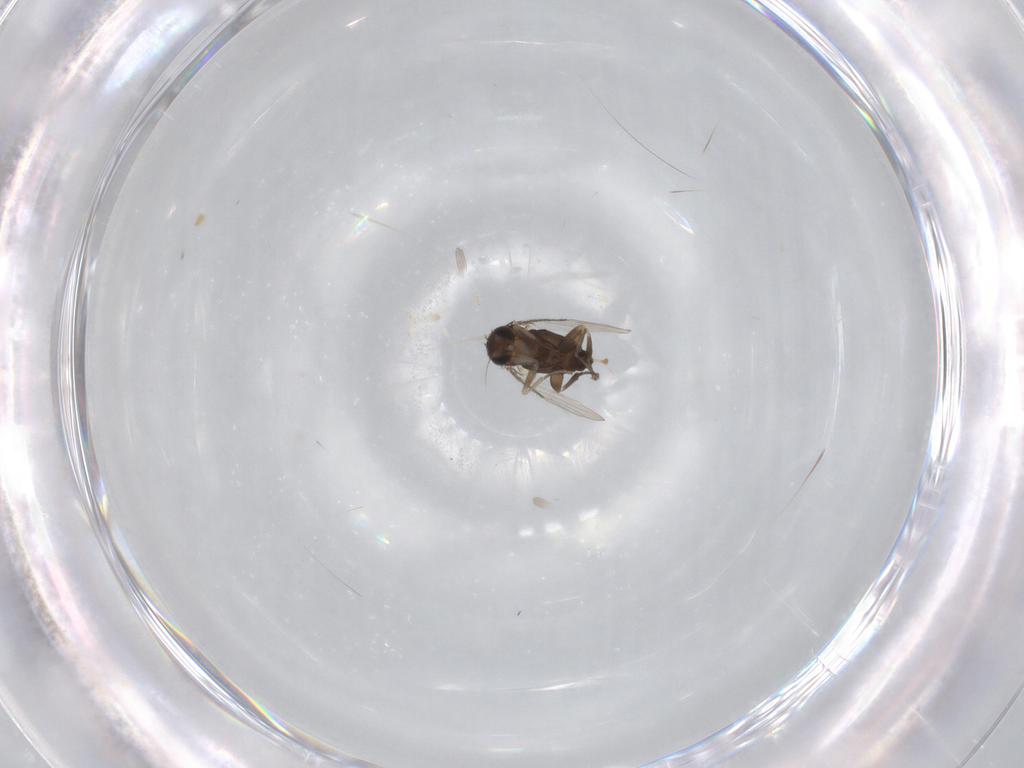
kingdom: Animalia
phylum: Arthropoda
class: Insecta
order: Diptera
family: Phoridae
